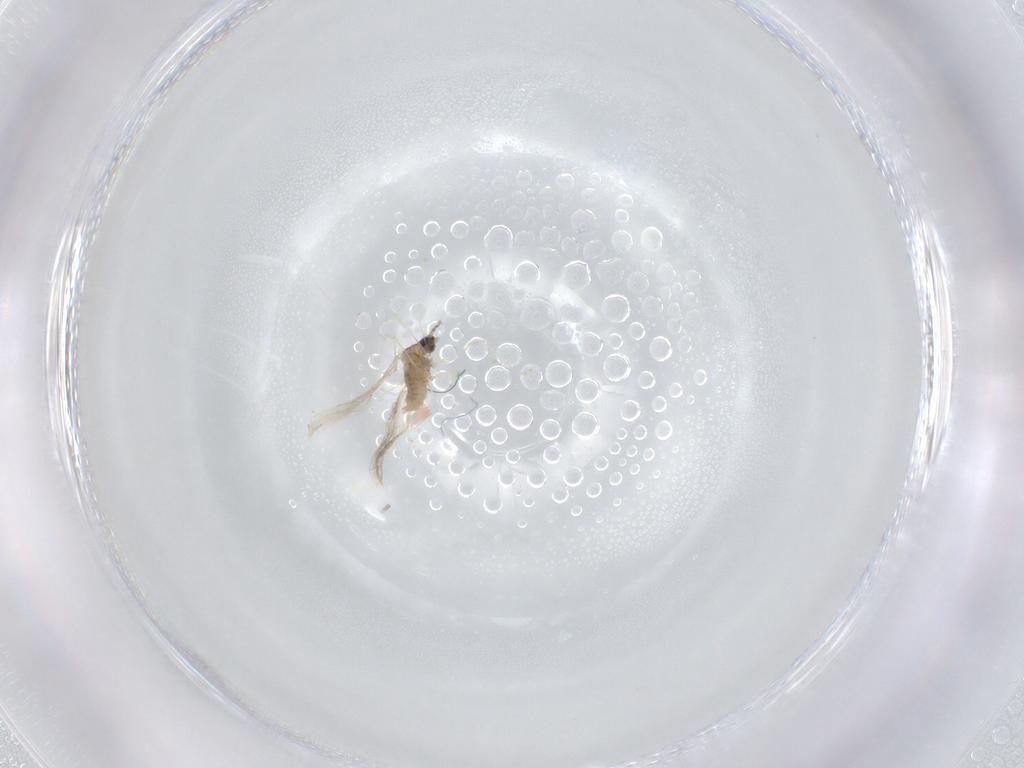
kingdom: Animalia
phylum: Arthropoda
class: Insecta
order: Diptera
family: Cecidomyiidae
